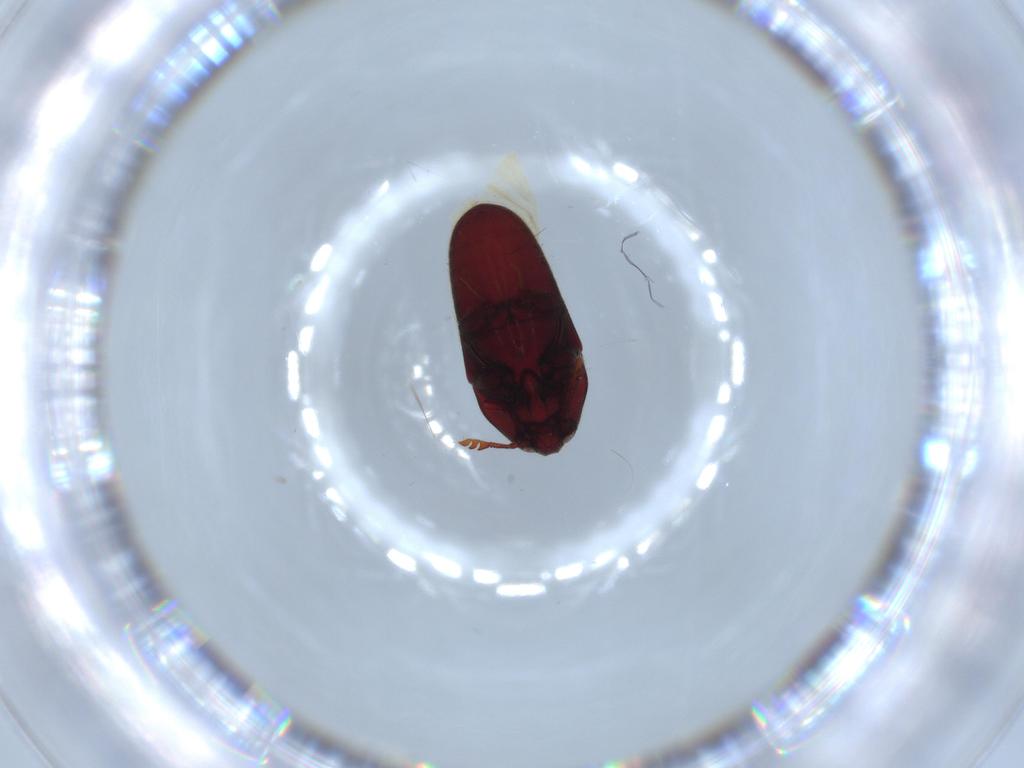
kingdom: Animalia
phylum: Arthropoda
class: Insecta
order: Coleoptera
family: Throscidae
